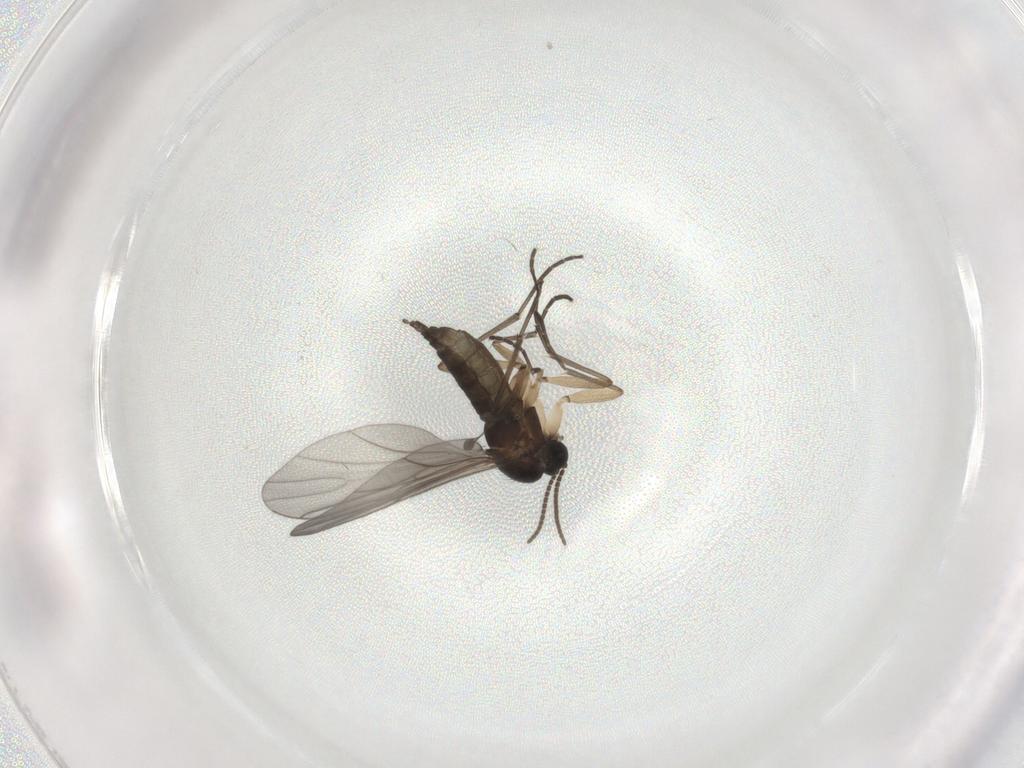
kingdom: Animalia
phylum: Arthropoda
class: Insecta
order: Diptera
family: Sciaridae
